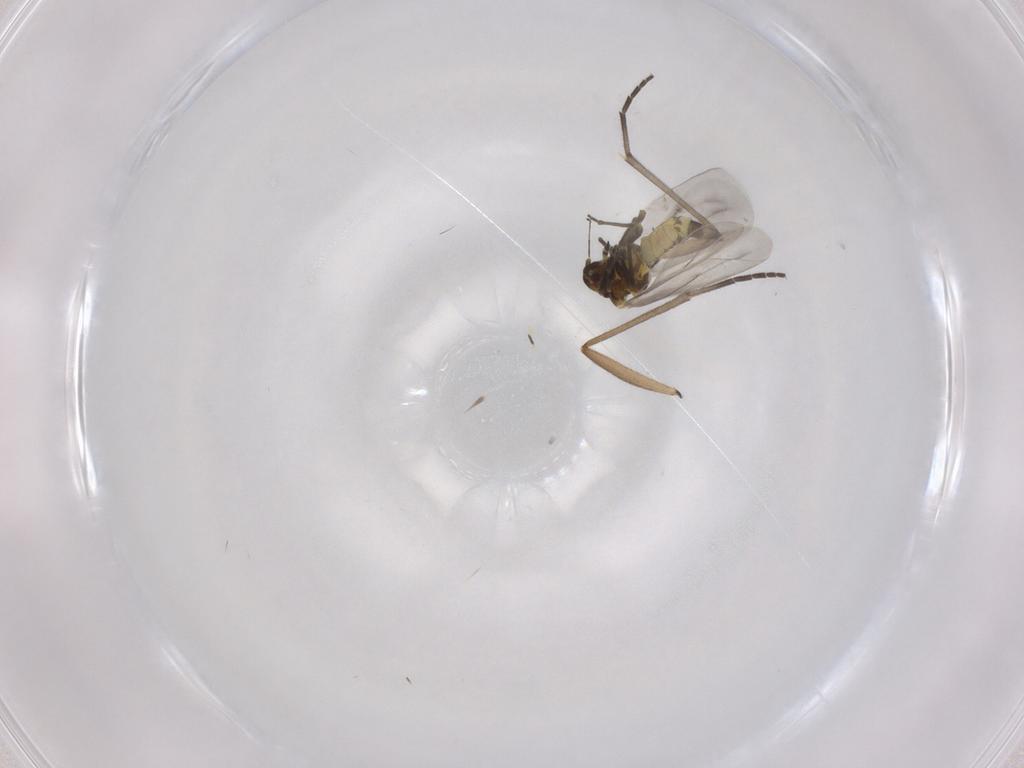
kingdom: Animalia
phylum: Arthropoda
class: Insecta
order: Diptera
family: Sciaridae
